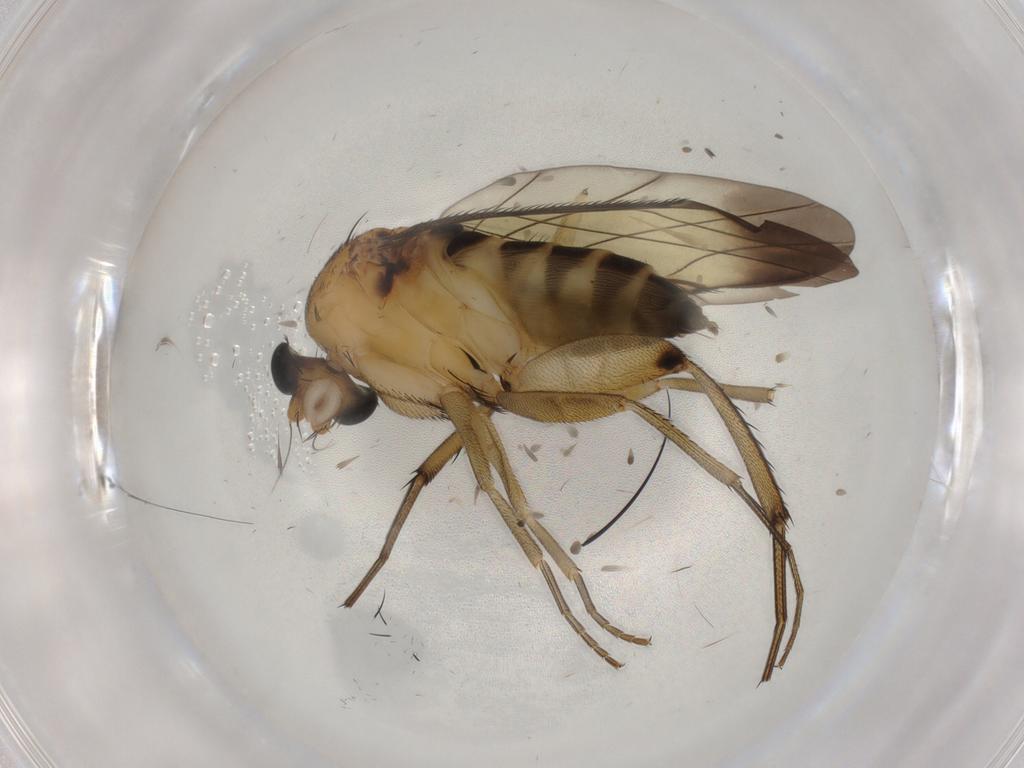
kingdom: Animalia
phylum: Arthropoda
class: Insecta
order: Diptera
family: Phoridae
